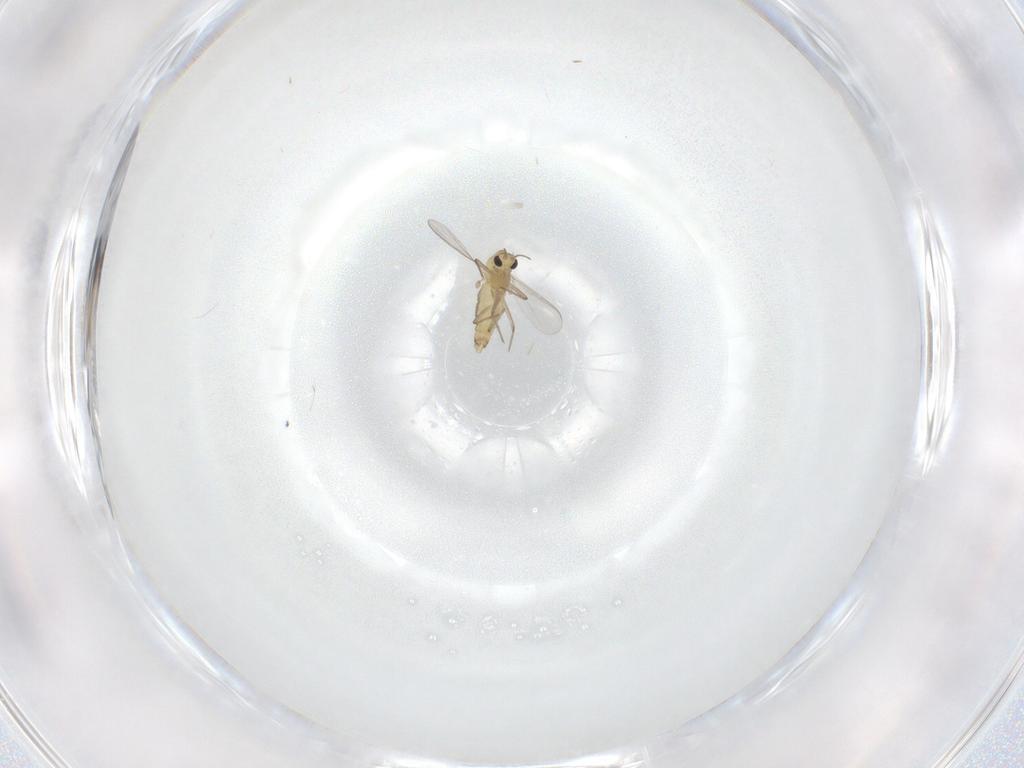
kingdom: Animalia
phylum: Arthropoda
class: Insecta
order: Diptera
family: Chironomidae
